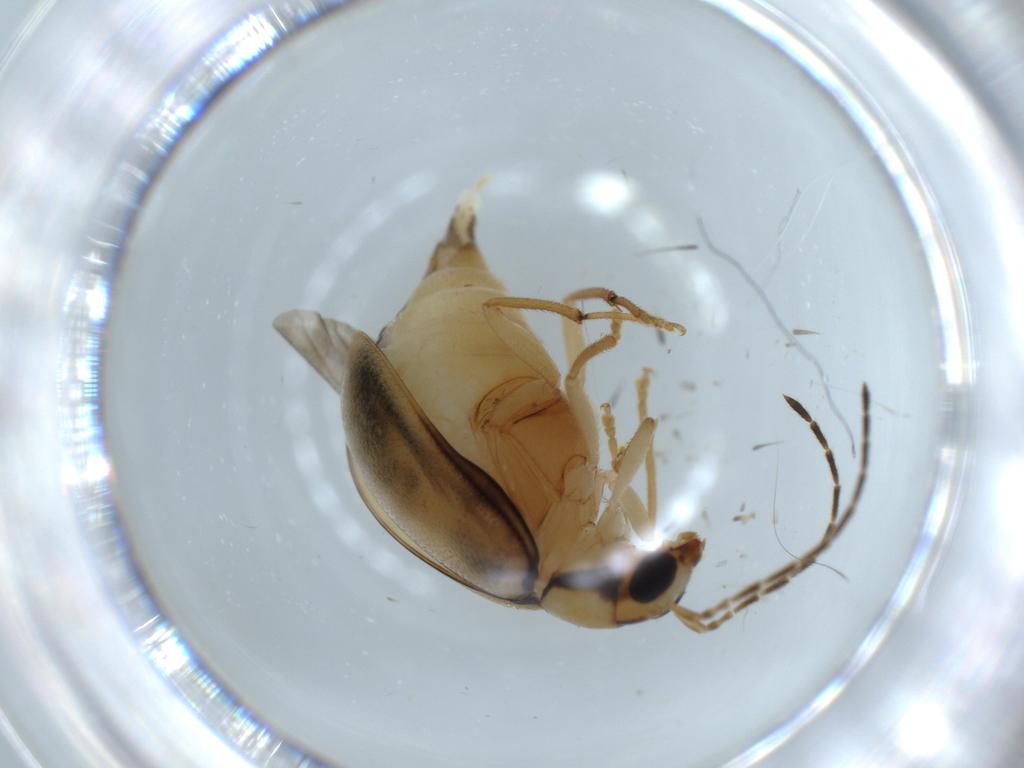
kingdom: Animalia
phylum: Arthropoda
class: Insecta
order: Coleoptera
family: Chrysomelidae
